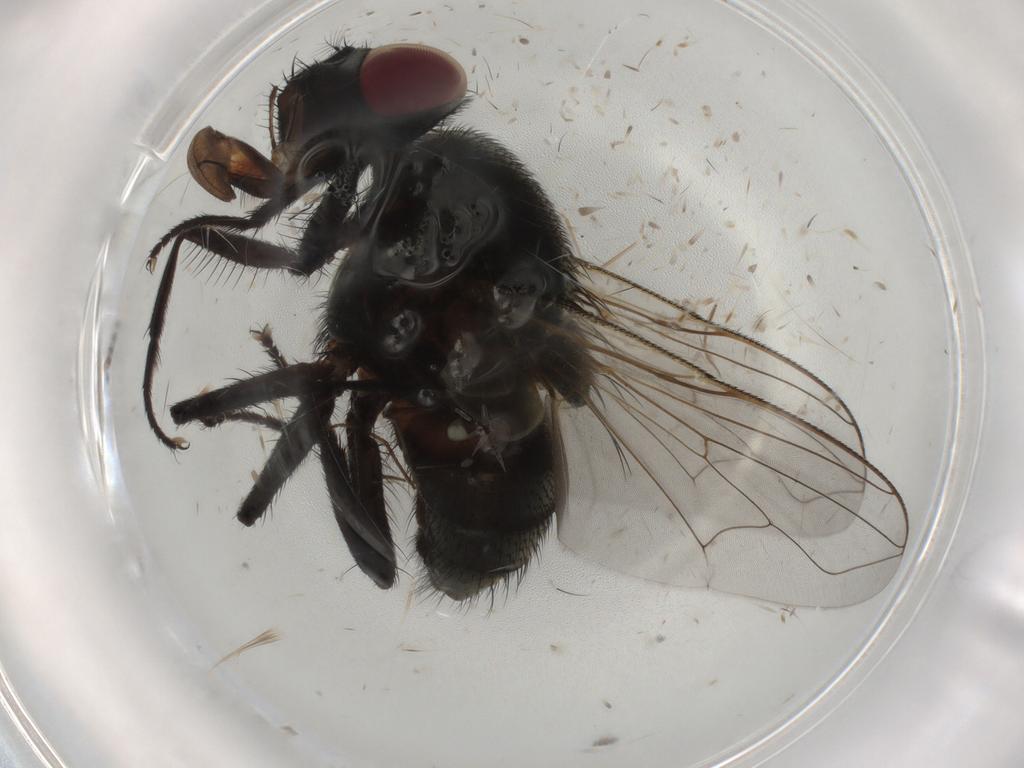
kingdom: Animalia
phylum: Arthropoda
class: Insecta
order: Diptera
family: Muscidae
